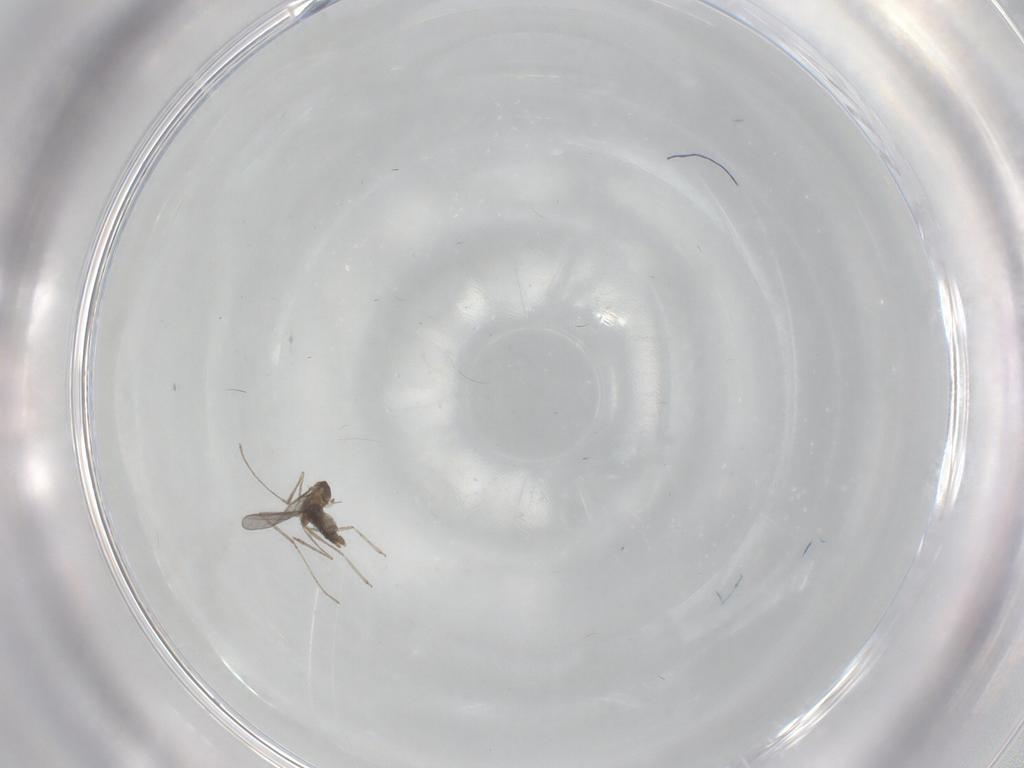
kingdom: Animalia
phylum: Arthropoda
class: Insecta
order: Diptera
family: Cecidomyiidae
